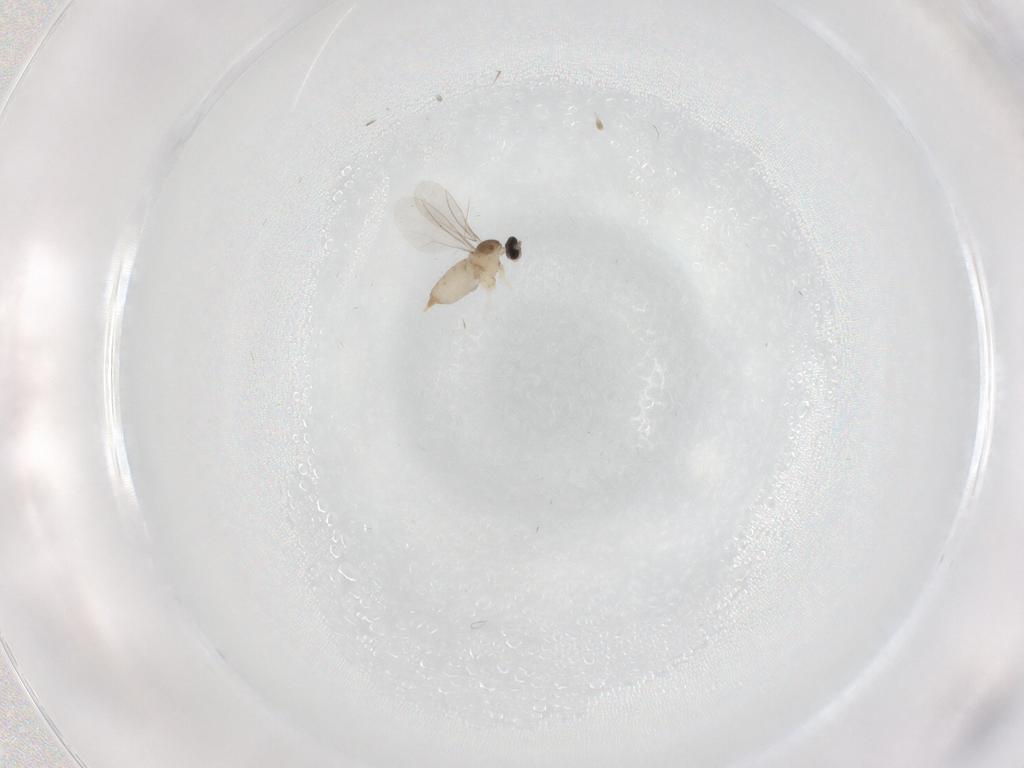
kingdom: Animalia
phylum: Arthropoda
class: Insecta
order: Diptera
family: Cecidomyiidae
